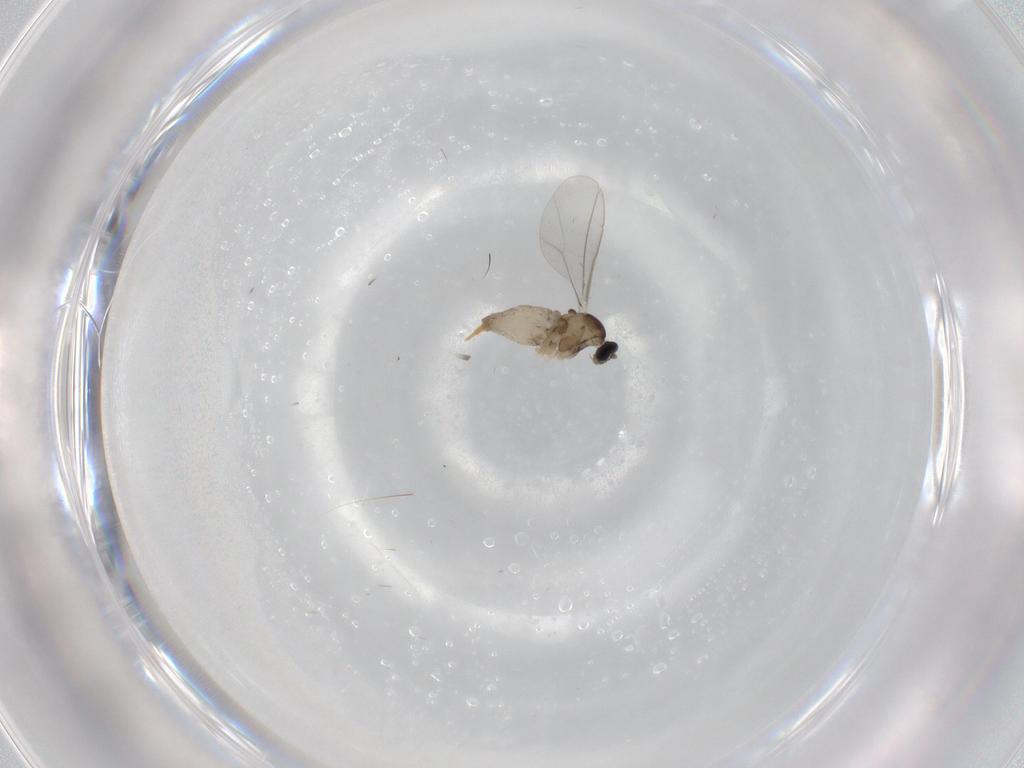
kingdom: Animalia
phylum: Arthropoda
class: Insecta
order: Diptera
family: Cecidomyiidae
